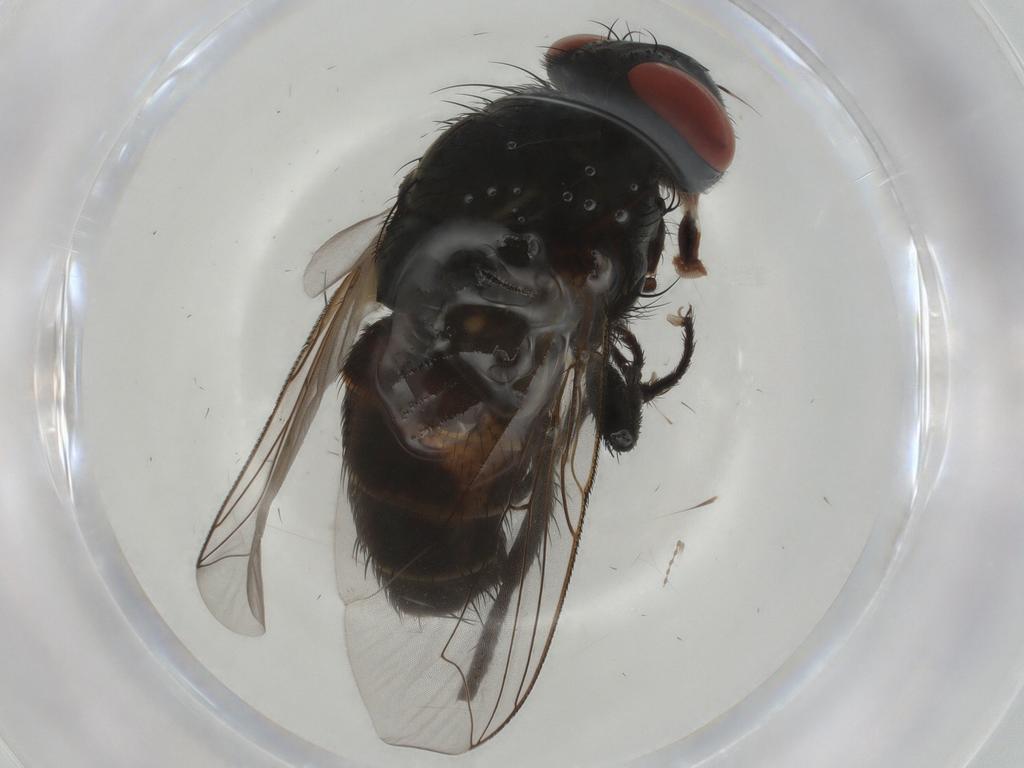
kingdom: Animalia
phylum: Arthropoda
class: Insecta
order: Diptera
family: Sarcophagidae
